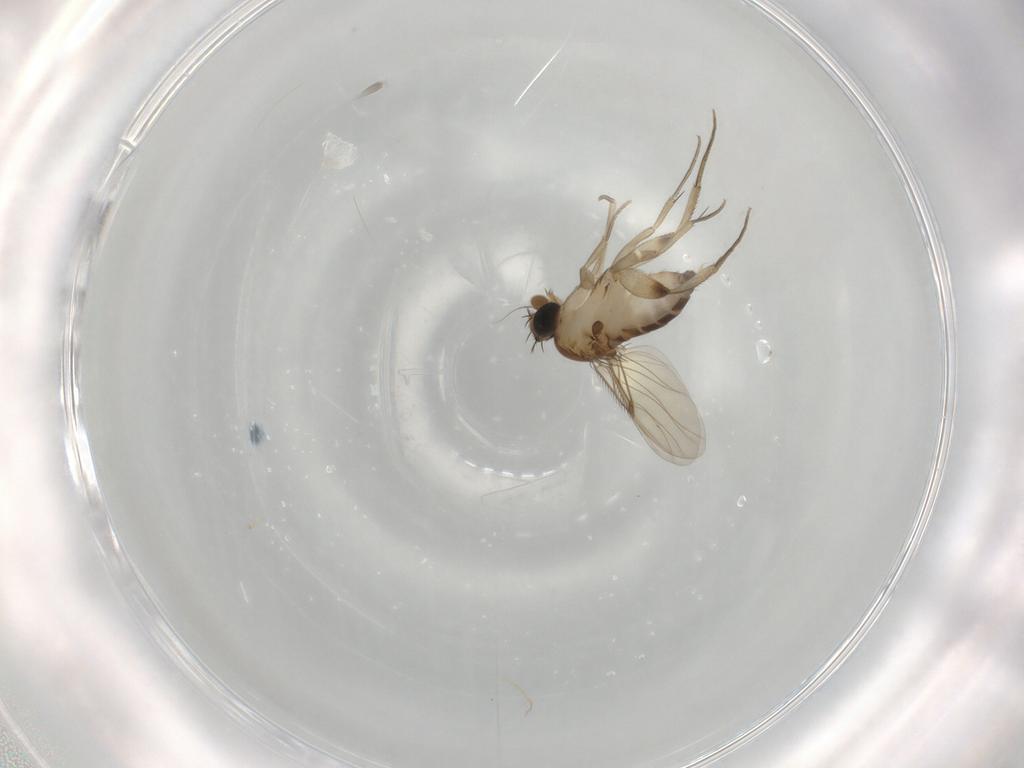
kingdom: Animalia
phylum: Arthropoda
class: Insecta
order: Diptera
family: Phoridae
